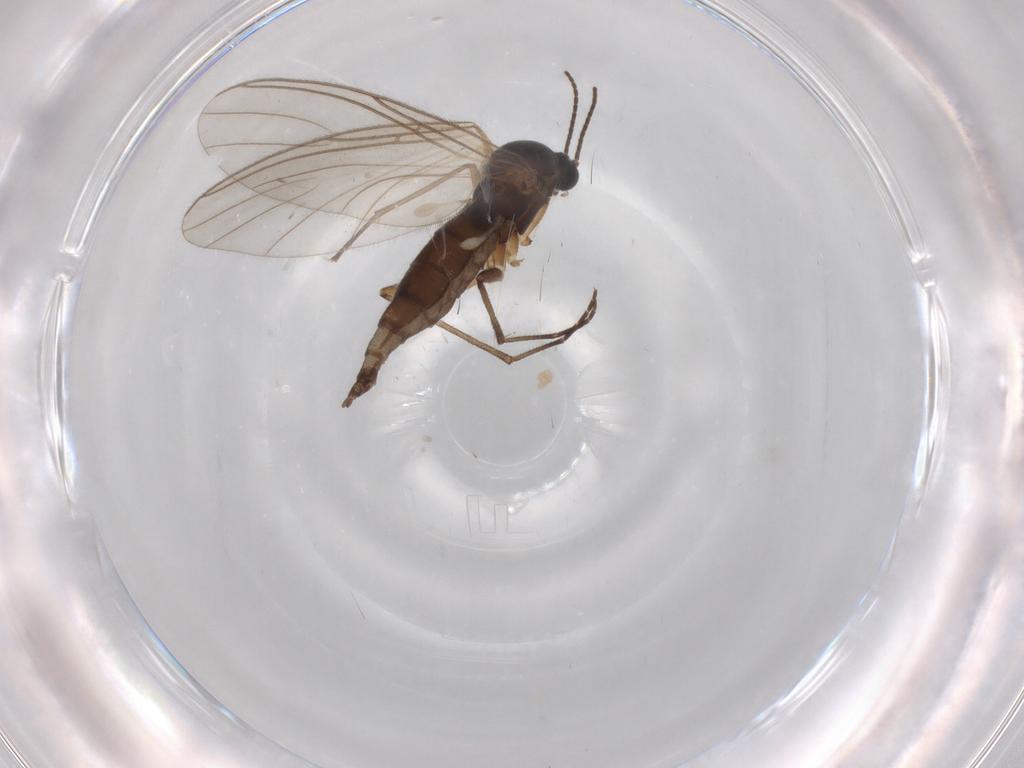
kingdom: Animalia
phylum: Arthropoda
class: Insecta
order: Diptera
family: Sciaridae
